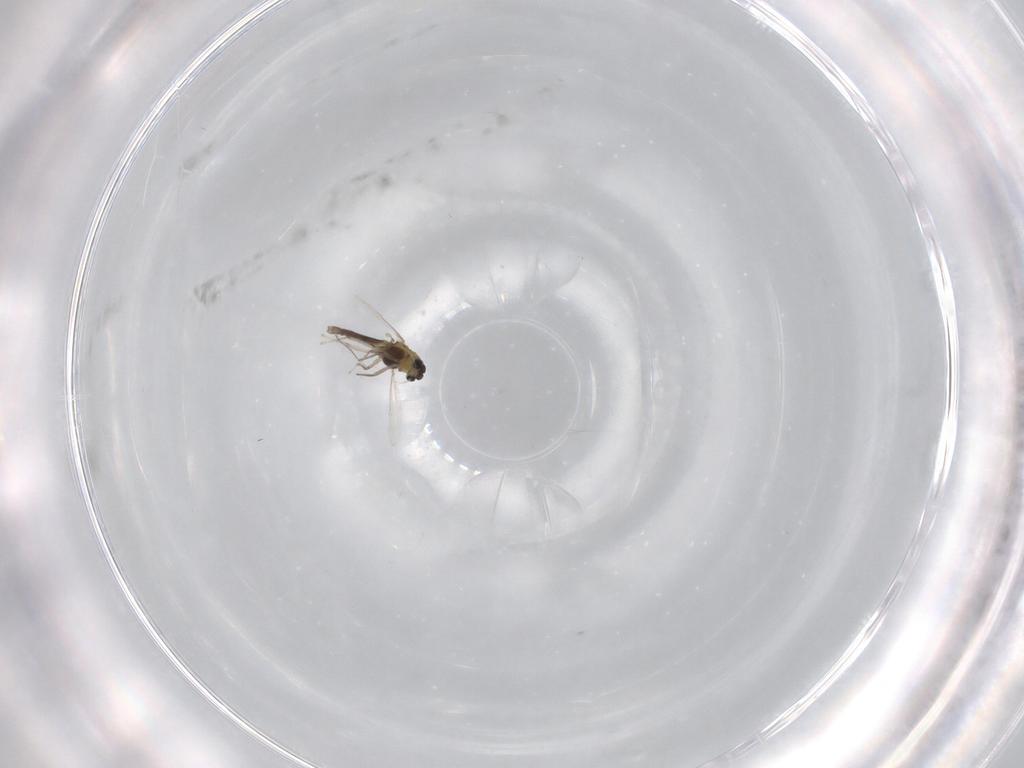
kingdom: Animalia
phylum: Arthropoda
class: Insecta
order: Diptera
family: Chironomidae
